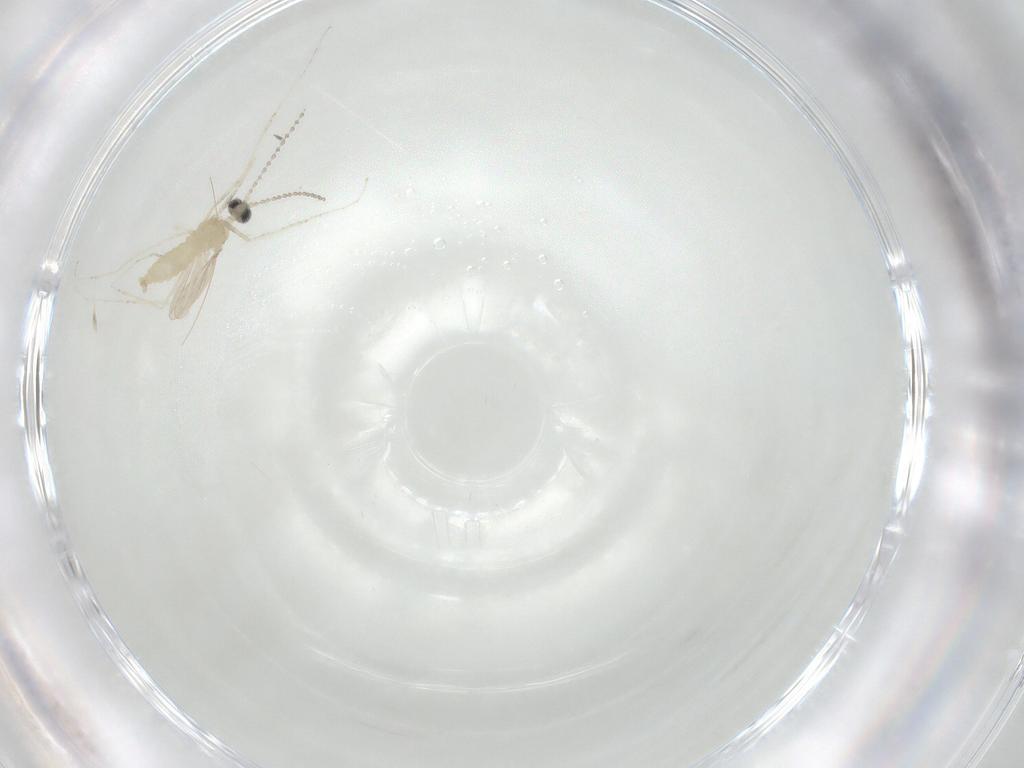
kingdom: Animalia
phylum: Arthropoda
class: Insecta
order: Diptera
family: Cecidomyiidae
